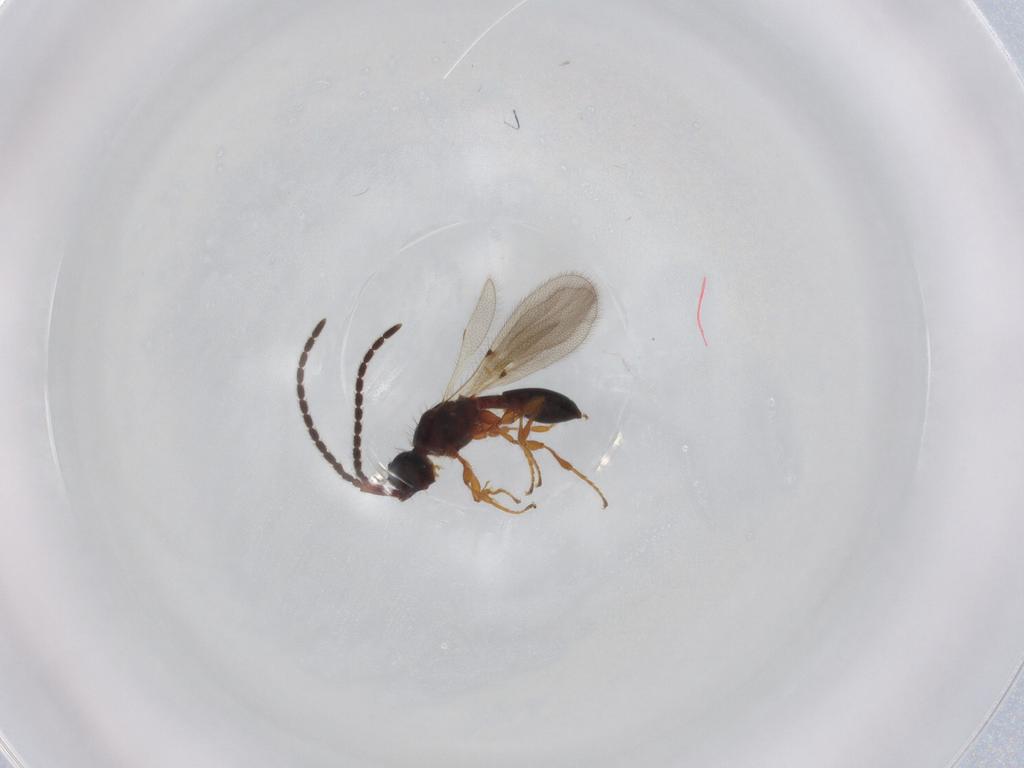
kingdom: Animalia
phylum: Arthropoda
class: Insecta
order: Hymenoptera
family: Diapriidae
